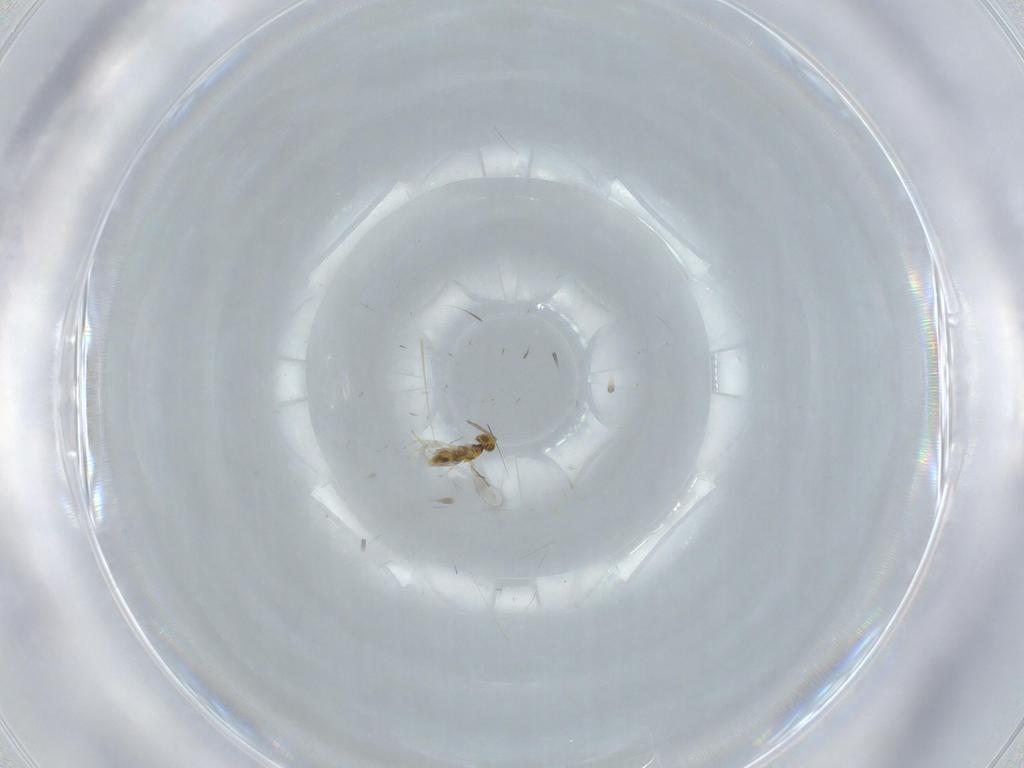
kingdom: Animalia
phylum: Arthropoda
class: Insecta
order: Hymenoptera
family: Aphelinidae
